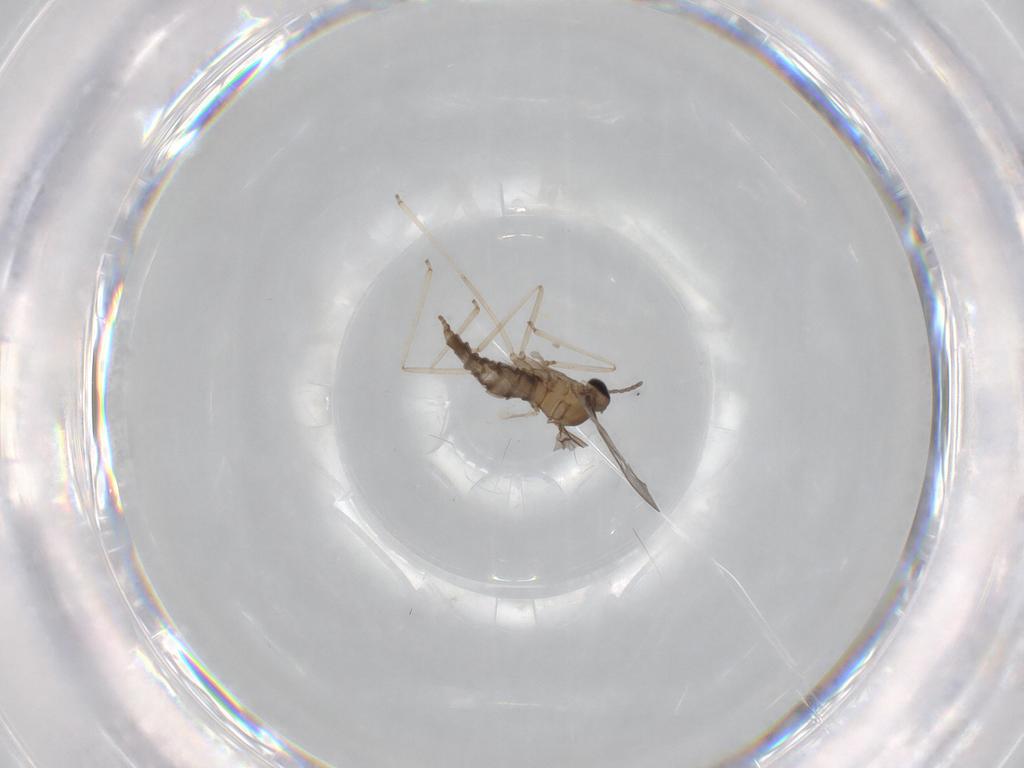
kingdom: Animalia
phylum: Arthropoda
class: Insecta
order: Diptera
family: Cecidomyiidae
